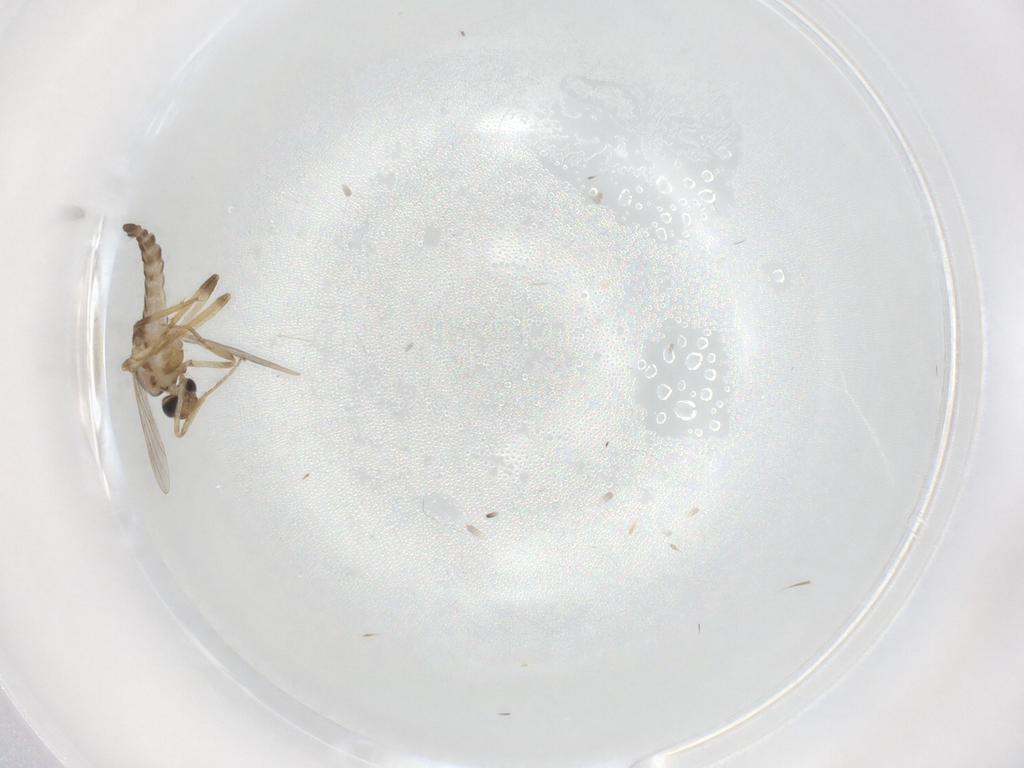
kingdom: Animalia
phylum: Arthropoda
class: Insecta
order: Diptera
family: Ceratopogonidae
